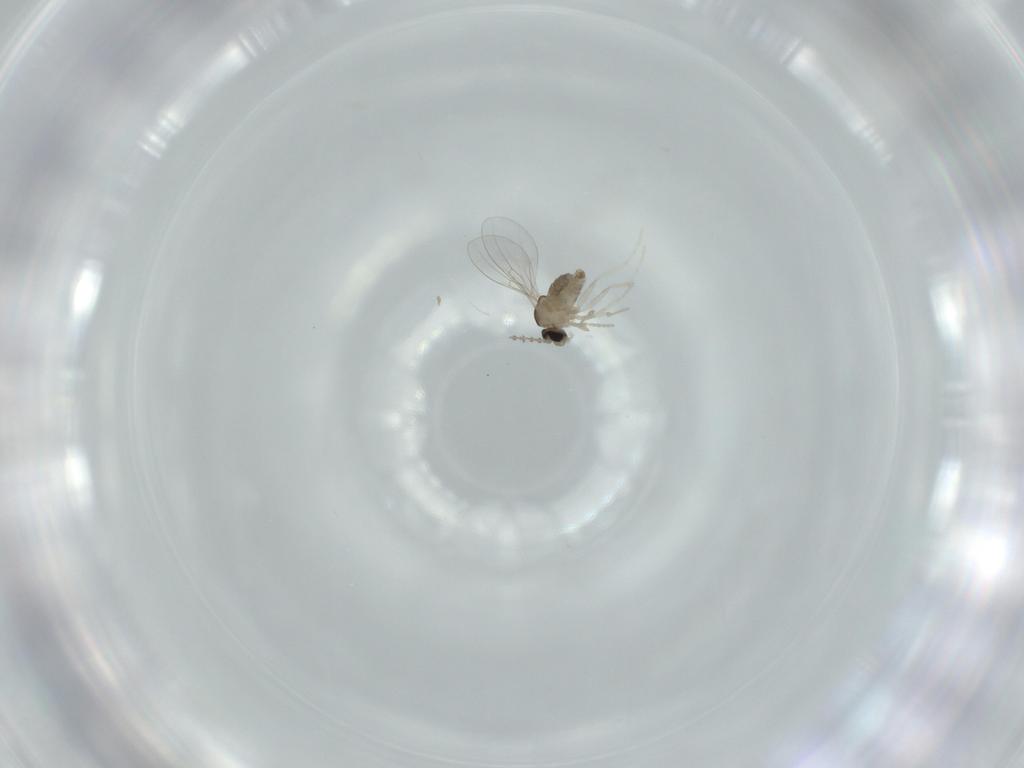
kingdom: Animalia
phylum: Arthropoda
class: Insecta
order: Diptera
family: Cecidomyiidae
